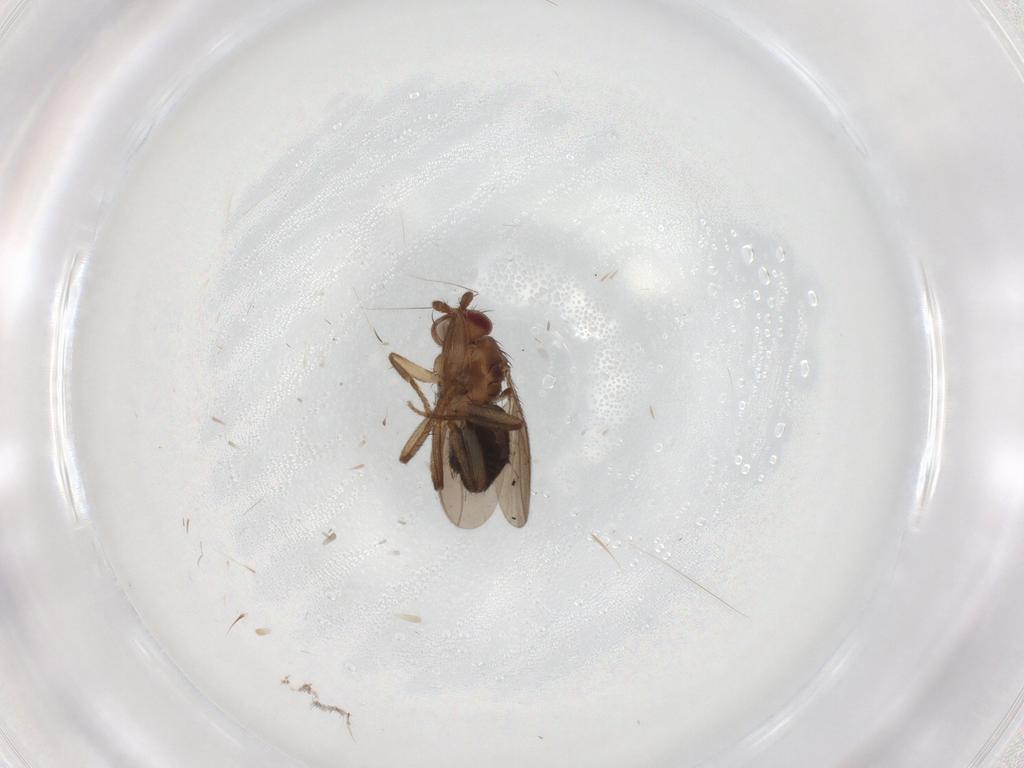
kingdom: Animalia
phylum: Arthropoda
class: Insecta
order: Diptera
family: Sphaeroceridae
